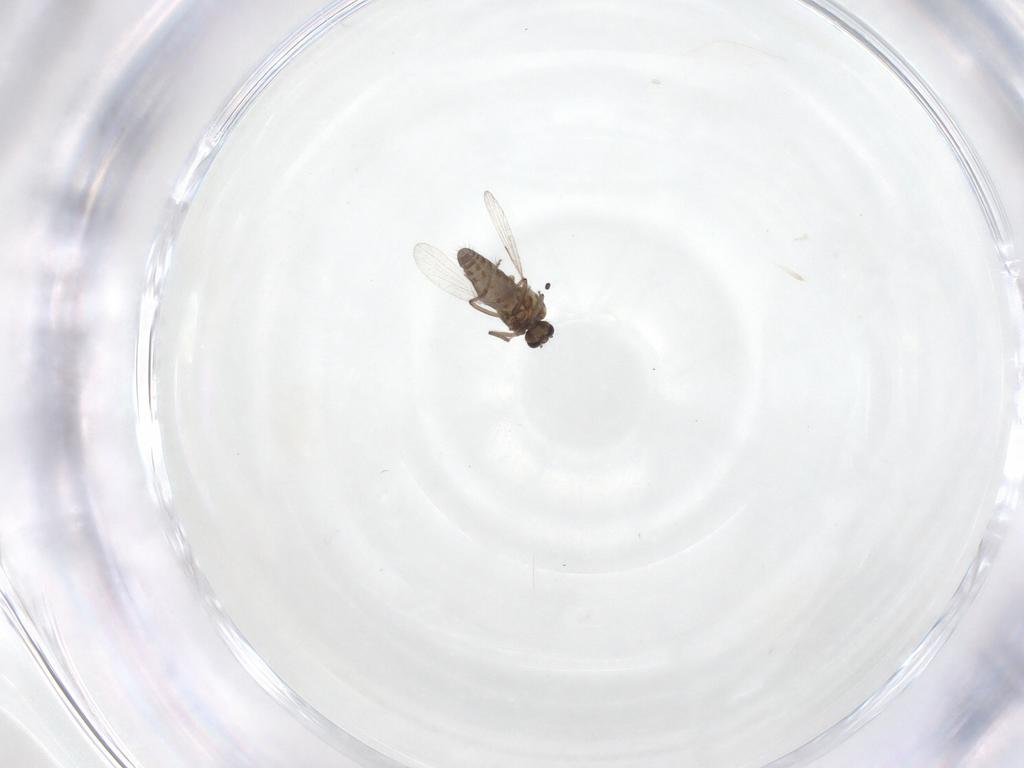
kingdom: Animalia
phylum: Arthropoda
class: Insecta
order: Diptera
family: Ceratopogonidae
